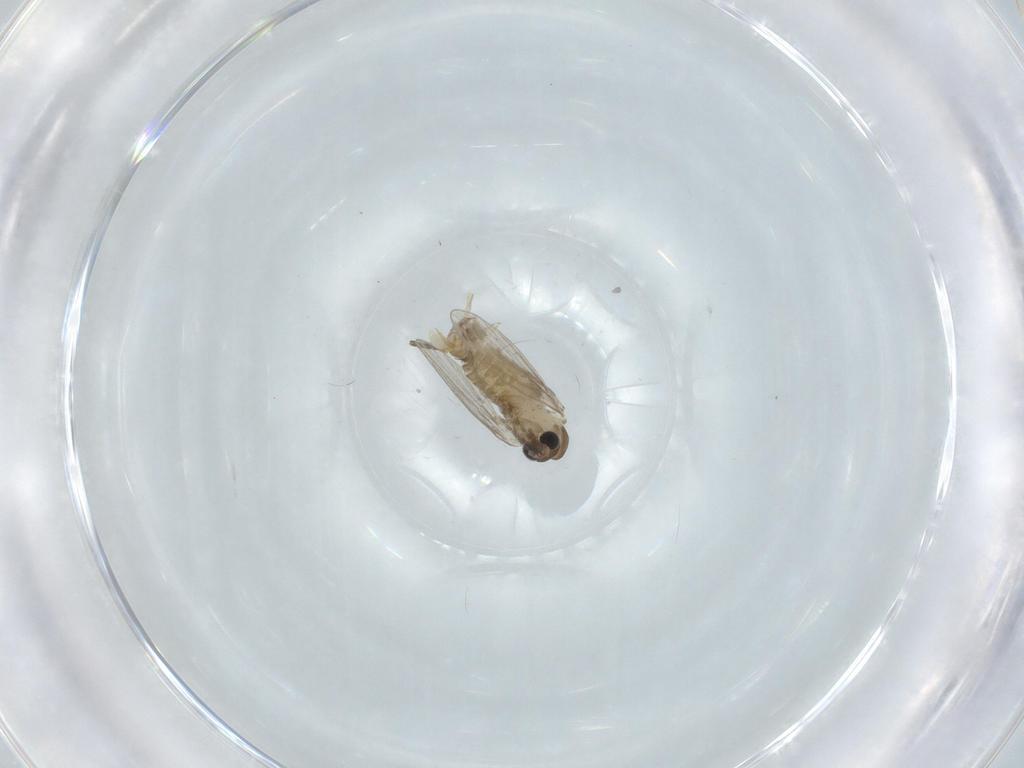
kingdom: Animalia
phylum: Arthropoda
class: Insecta
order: Diptera
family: Psychodidae
